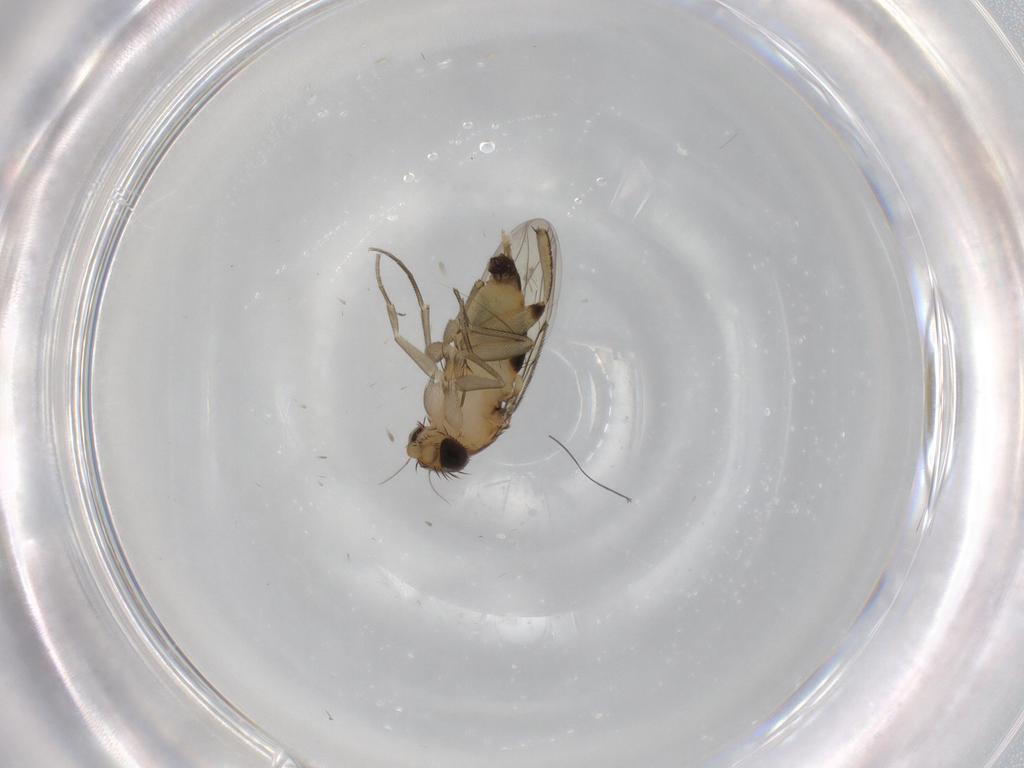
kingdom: Animalia
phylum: Arthropoda
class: Insecta
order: Diptera
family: Phoridae
